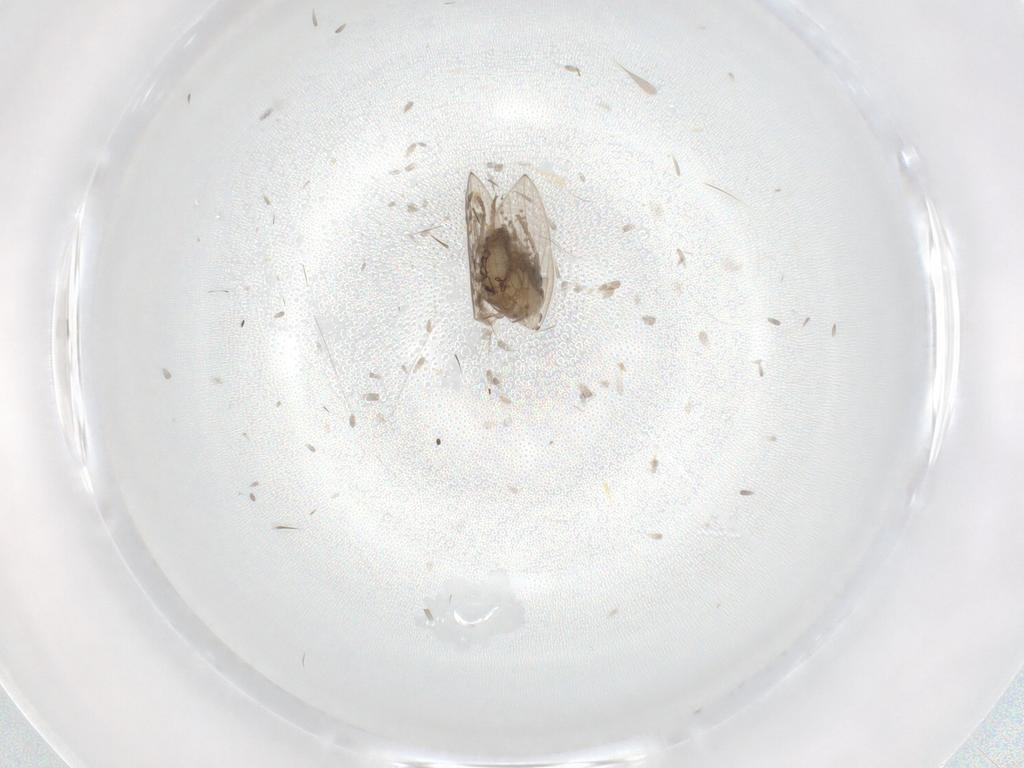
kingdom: Animalia
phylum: Arthropoda
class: Insecta
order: Diptera
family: Psychodidae
